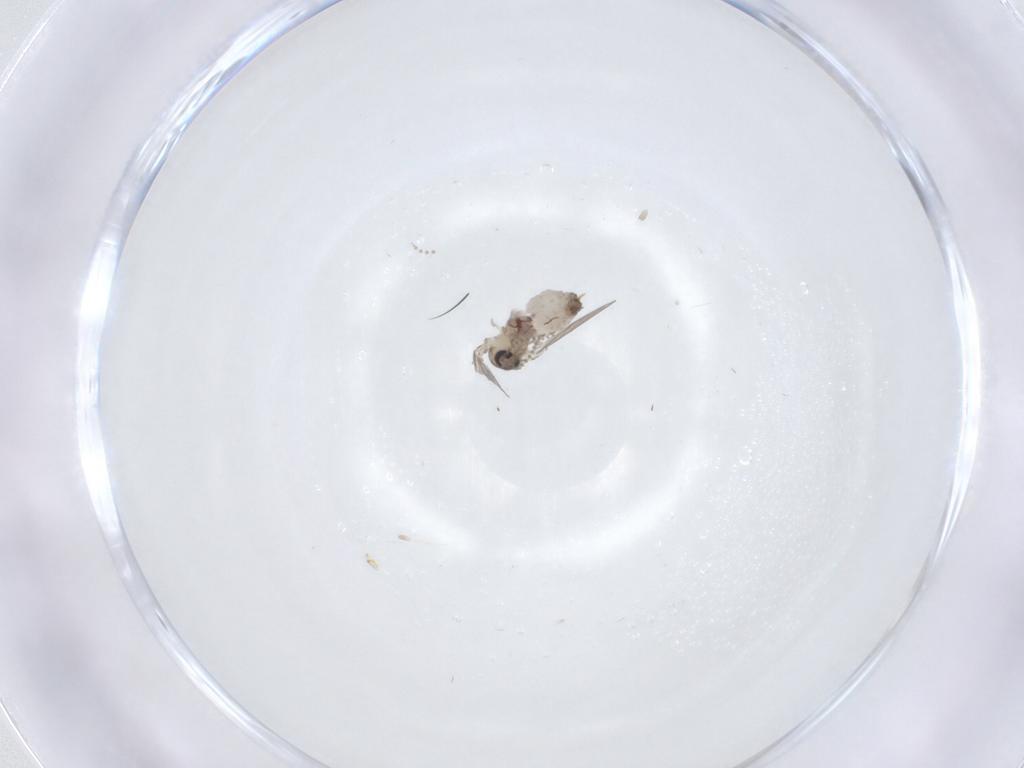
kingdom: Animalia
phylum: Arthropoda
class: Insecta
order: Diptera
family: Psychodidae
